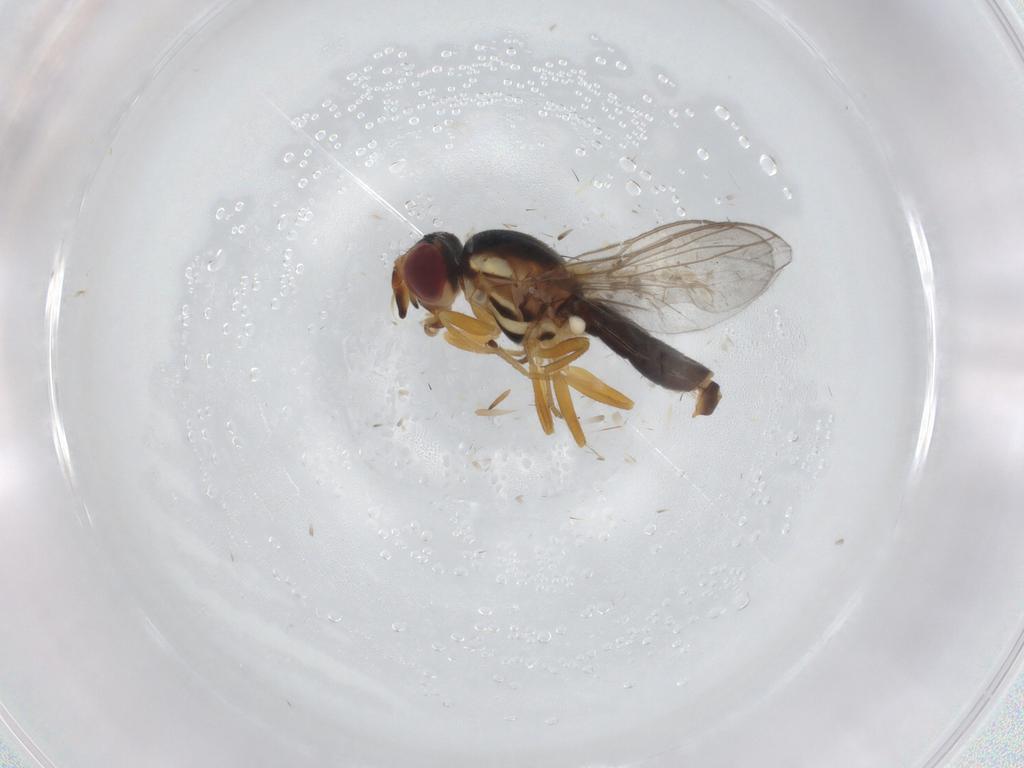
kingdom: Animalia
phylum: Arthropoda
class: Insecta
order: Diptera
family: Chloropidae
